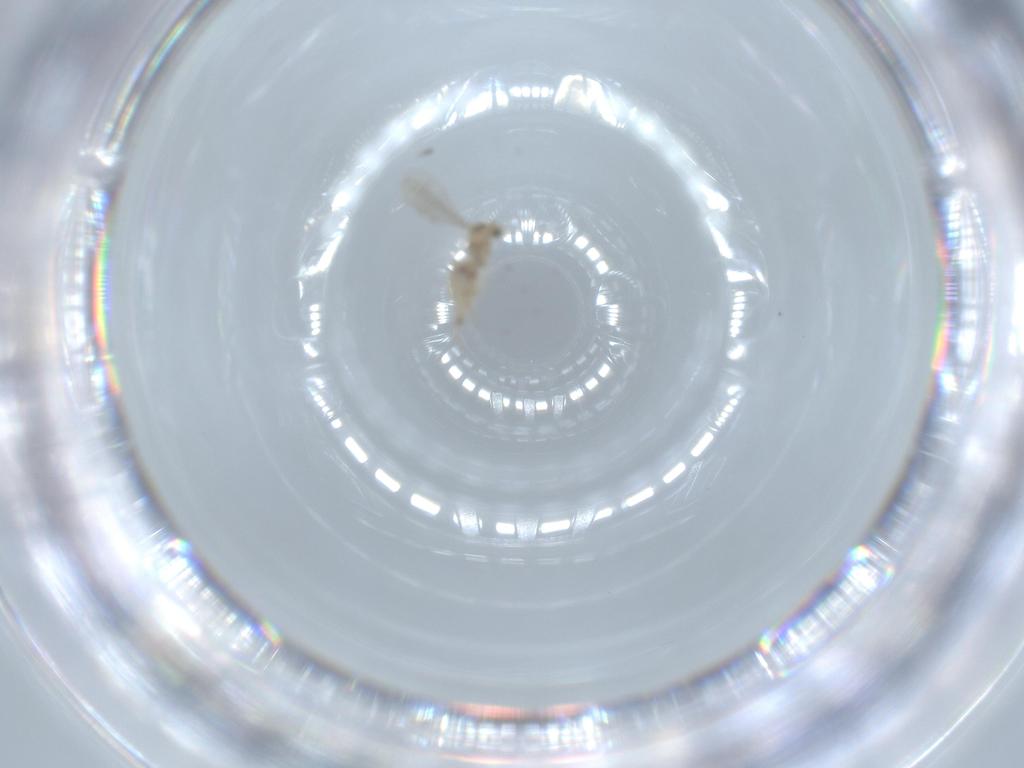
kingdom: Animalia
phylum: Arthropoda
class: Insecta
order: Diptera
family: Cecidomyiidae
